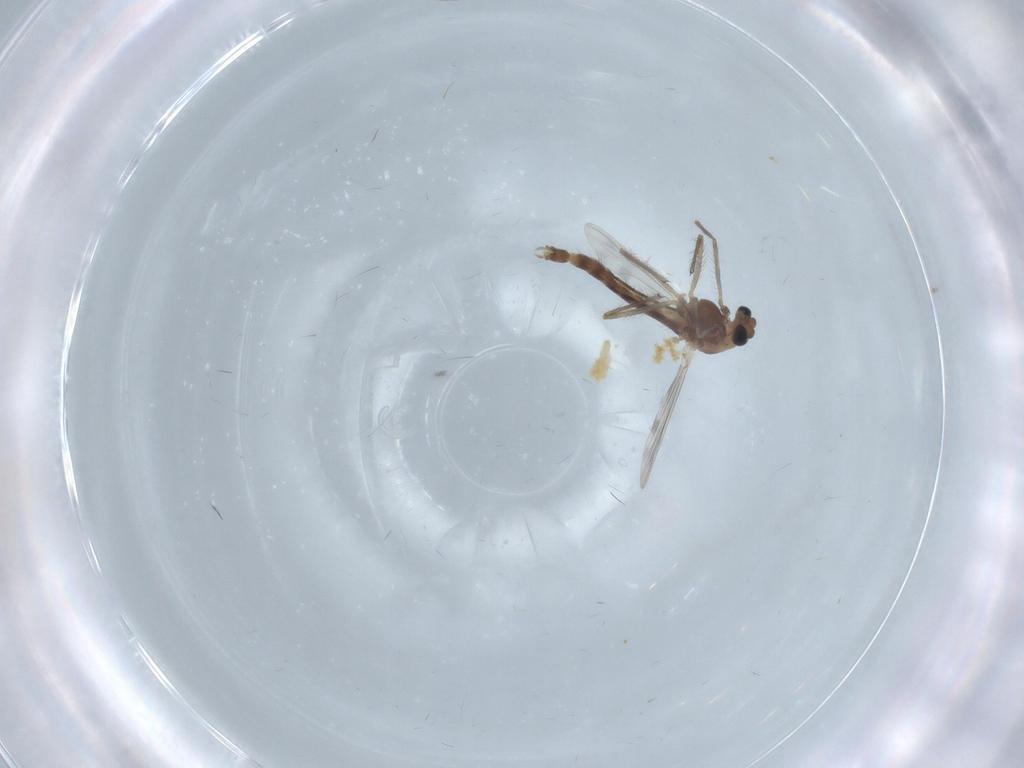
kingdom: Animalia
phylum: Arthropoda
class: Insecta
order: Diptera
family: Chironomidae
